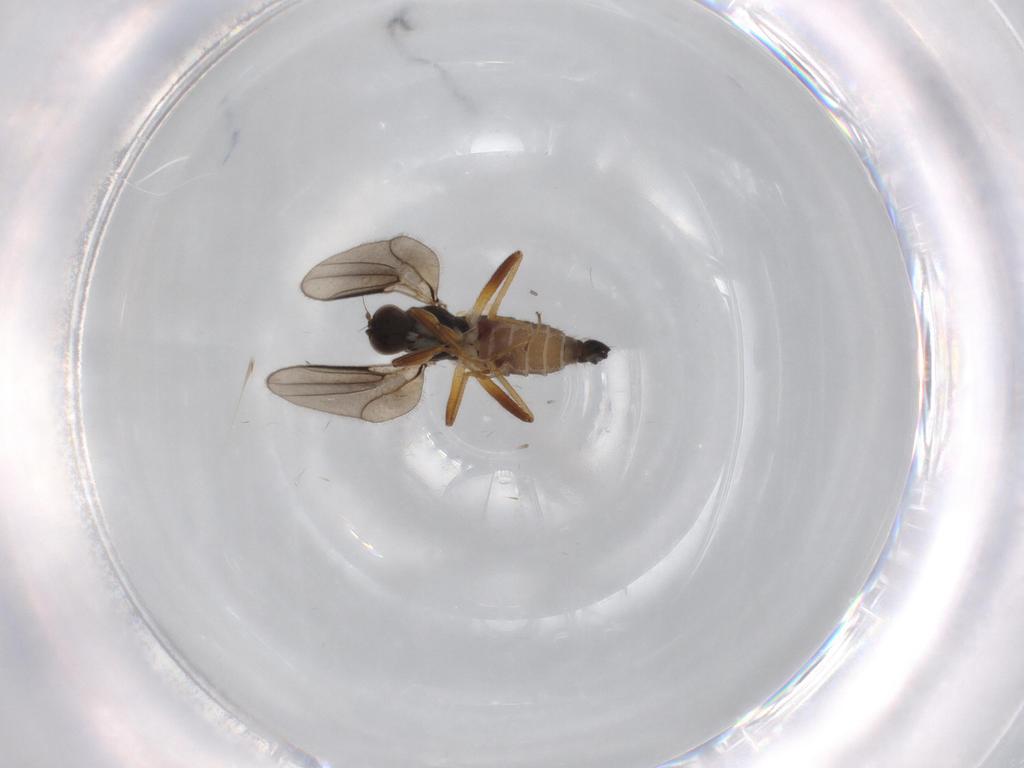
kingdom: Animalia
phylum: Arthropoda
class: Insecta
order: Diptera
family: Hybotidae
